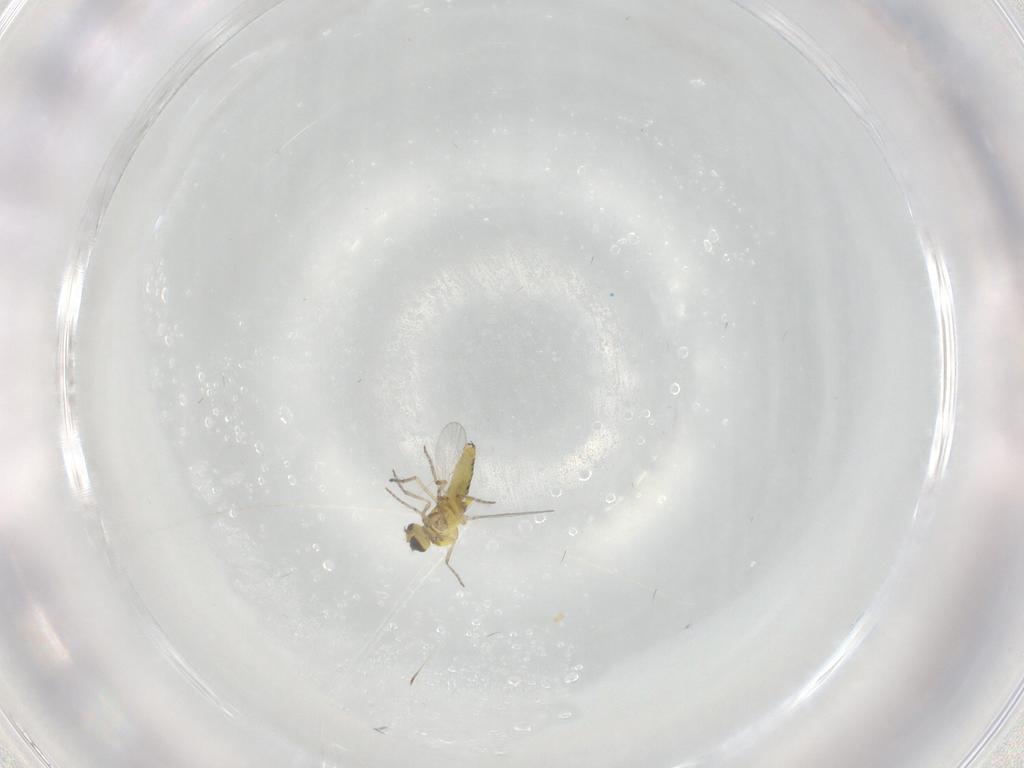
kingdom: Animalia
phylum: Arthropoda
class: Insecta
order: Diptera
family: Ceratopogonidae
